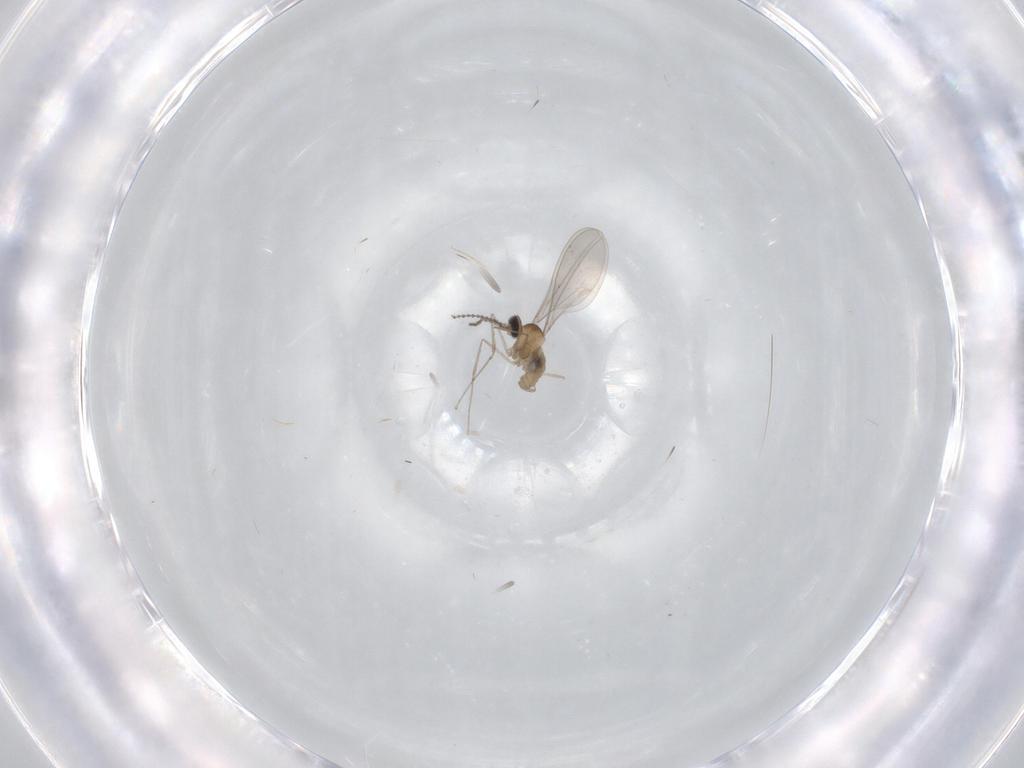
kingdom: Animalia
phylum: Arthropoda
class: Insecta
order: Diptera
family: Cecidomyiidae
